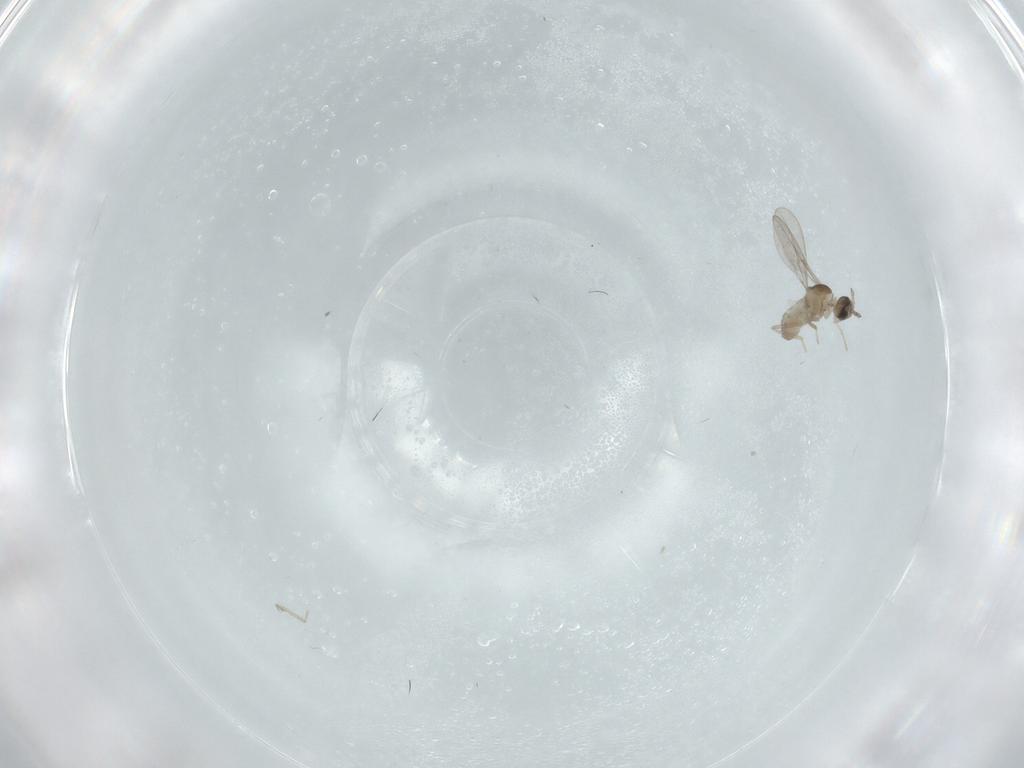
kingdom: Animalia
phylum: Arthropoda
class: Insecta
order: Diptera
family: Cecidomyiidae
